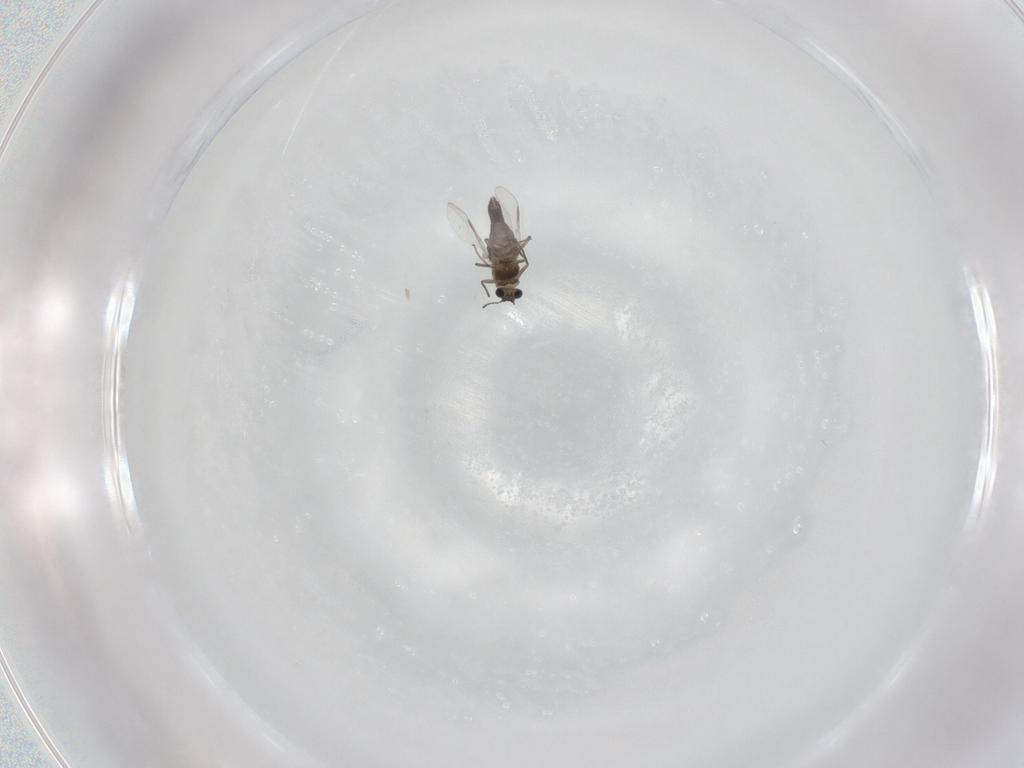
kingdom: Animalia
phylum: Arthropoda
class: Insecta
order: Diptera
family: Chironomidae
